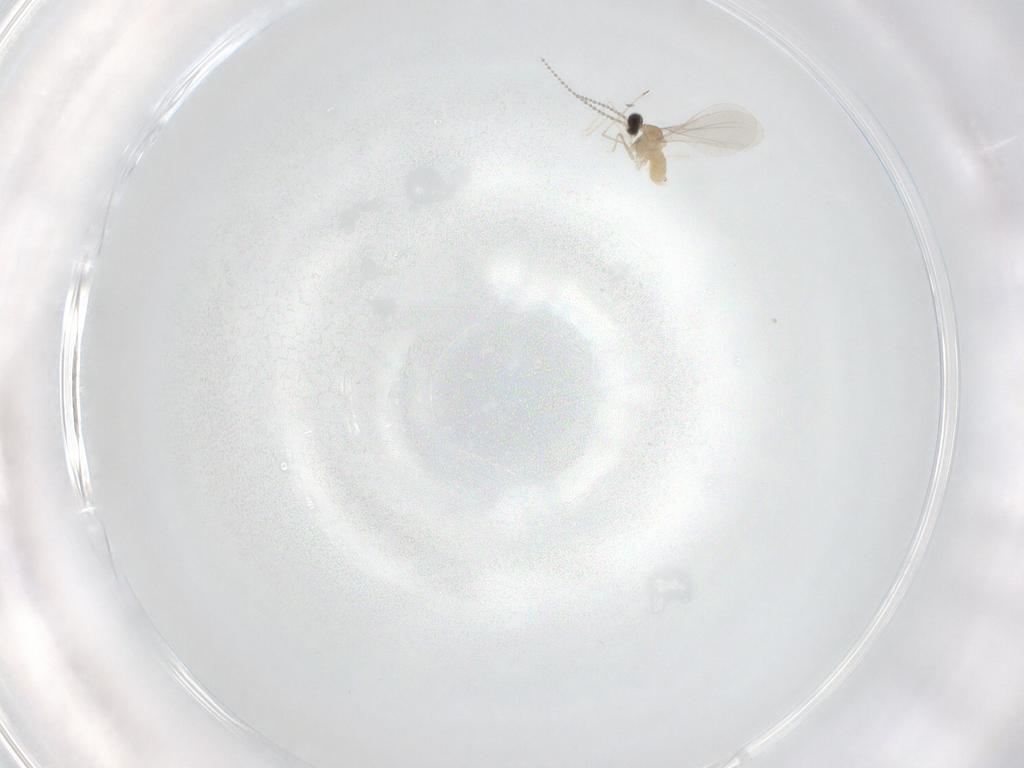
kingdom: Animalia
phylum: Arthropoda
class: Insecta
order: Diptera
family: Cecidomyiidae
